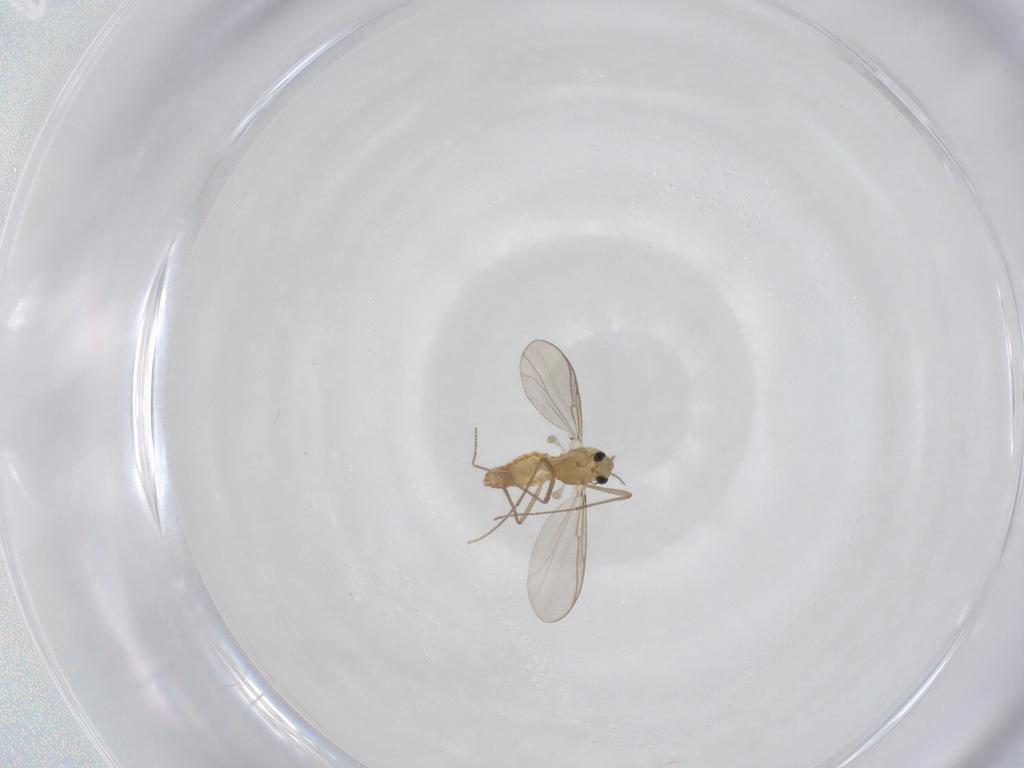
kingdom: Animalia
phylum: Arthropoda
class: Insecta
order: Diptera
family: Chironomidae
